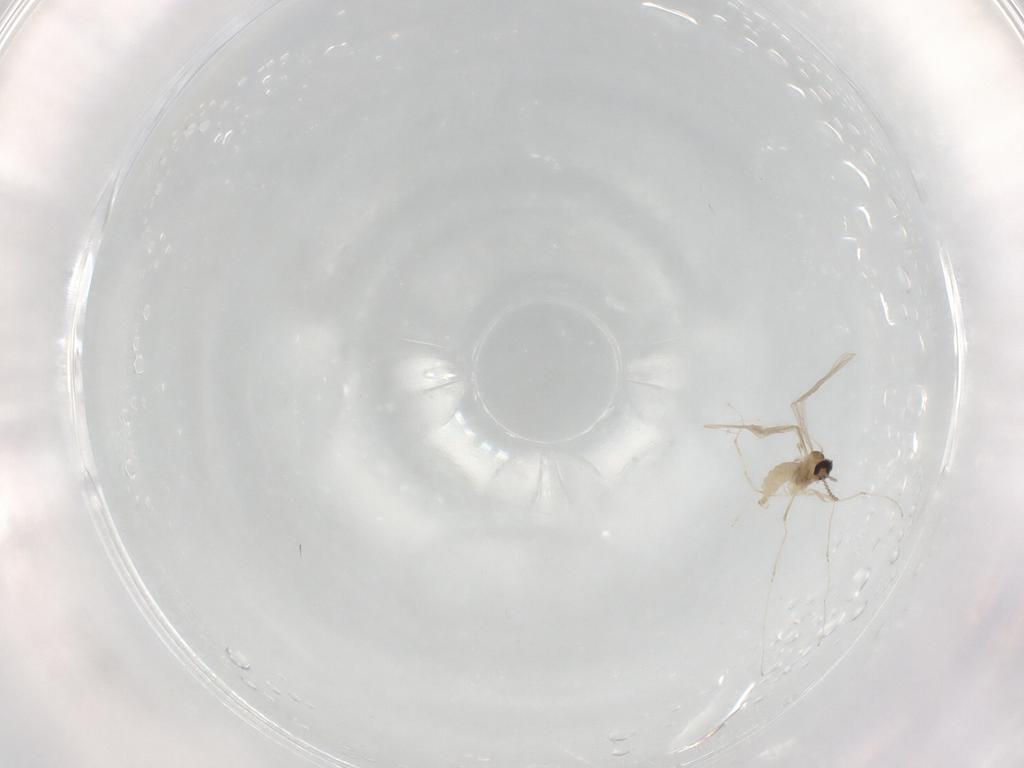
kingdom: Animalia
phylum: Arthropoda
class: Insecta
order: Diptera
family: Cecidomyiidae
